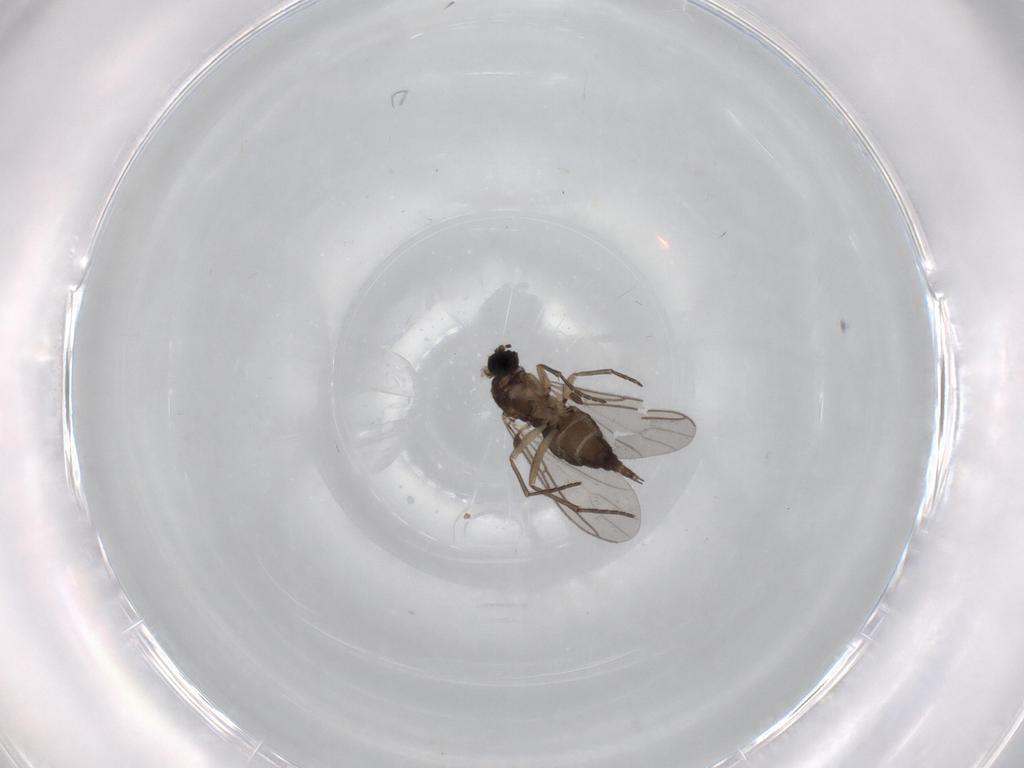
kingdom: Animalia
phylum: Arthropoda
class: Insecta
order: Diptera
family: Sciaridae
